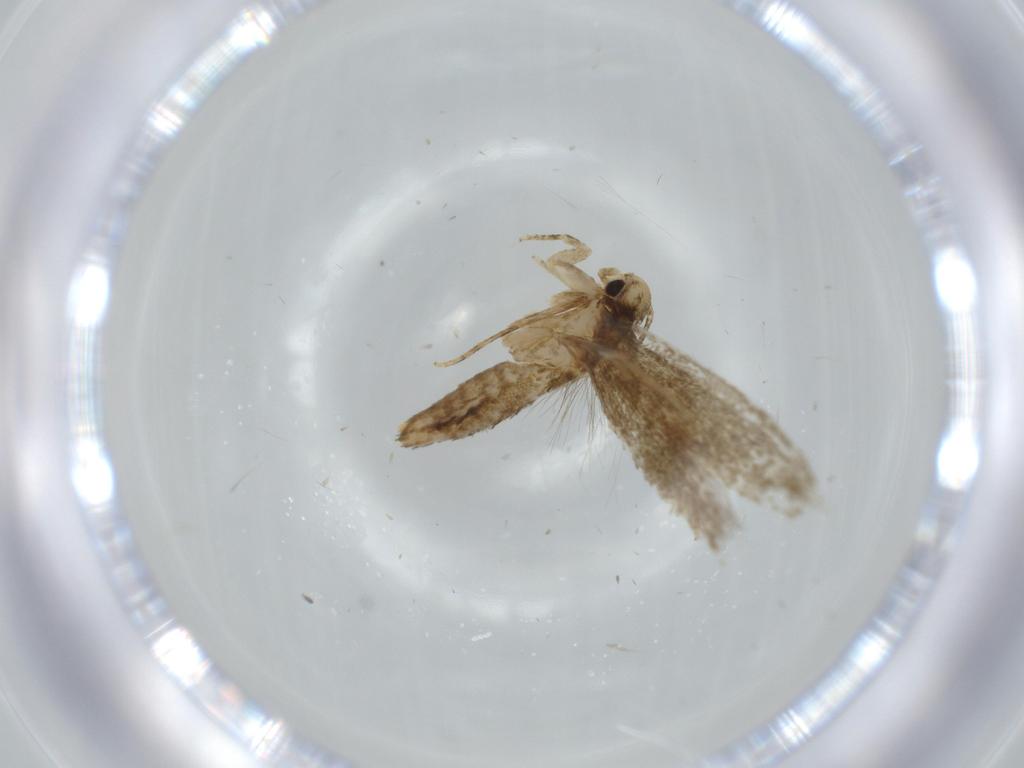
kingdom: Animalia
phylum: Arthropoda
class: Insecta
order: Lepidoptera
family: Tineidae
